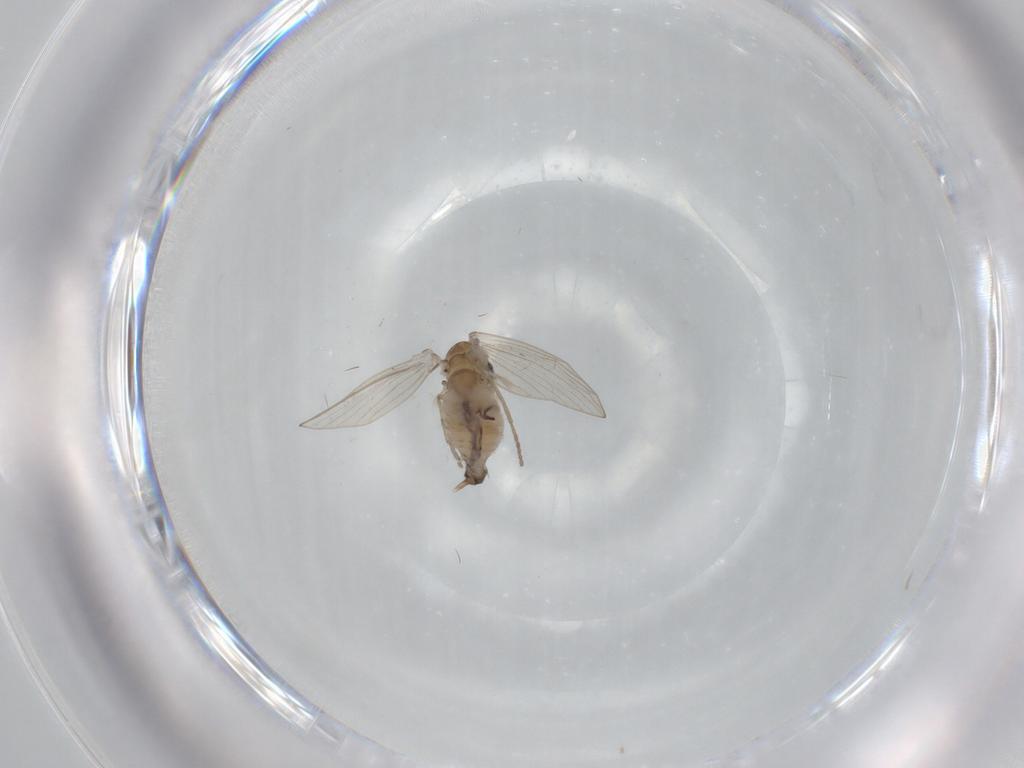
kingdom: Animalia
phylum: Arthropoda
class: Insecta
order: Diptera
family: Psychodidae
